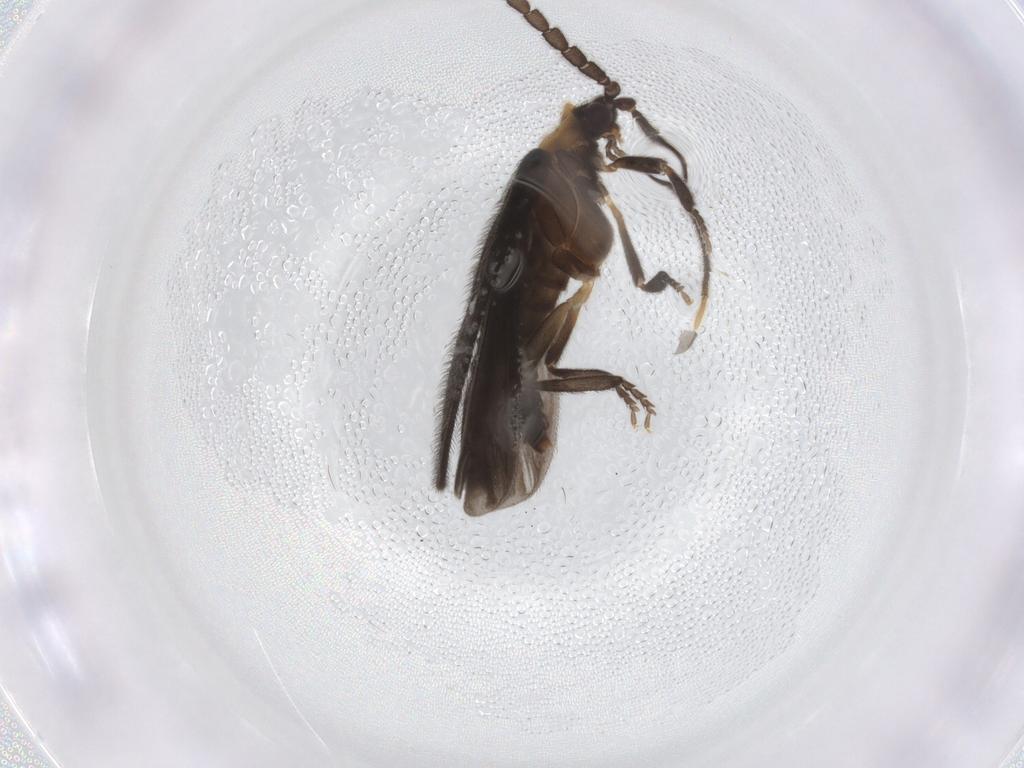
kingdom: Animalia
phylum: Arthropoda
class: Insecta
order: Coleoptera
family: Lycidae
